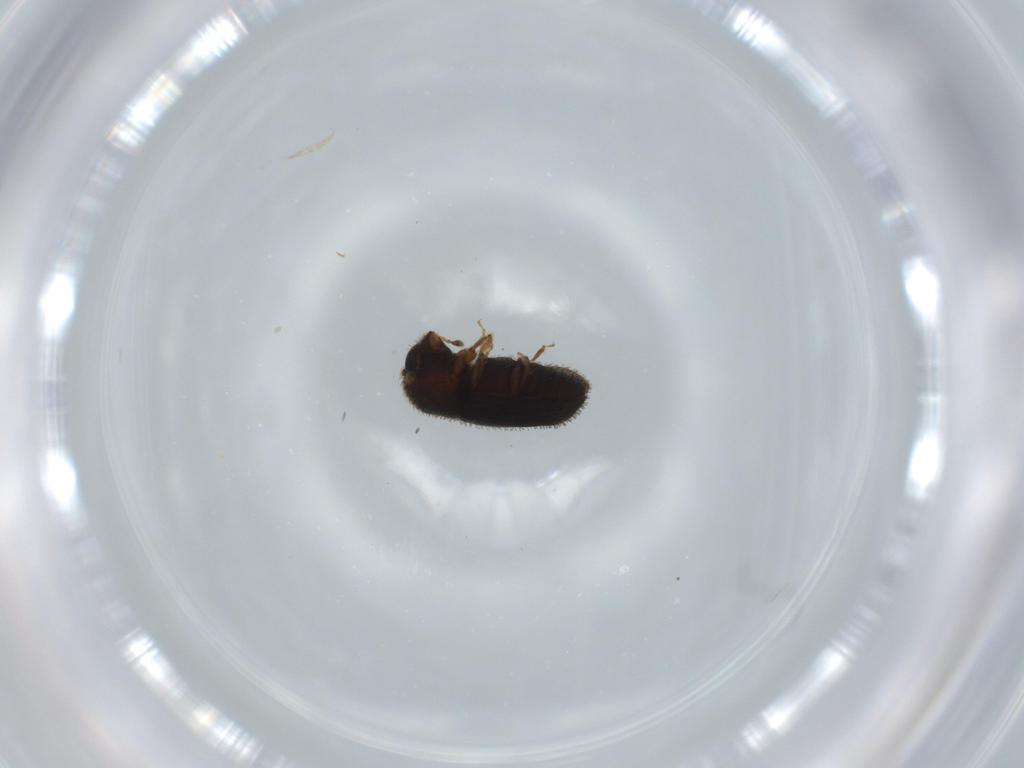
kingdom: Animalia
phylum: Arthropoda
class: Insecta
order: Coleoptera
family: Curculionidae
